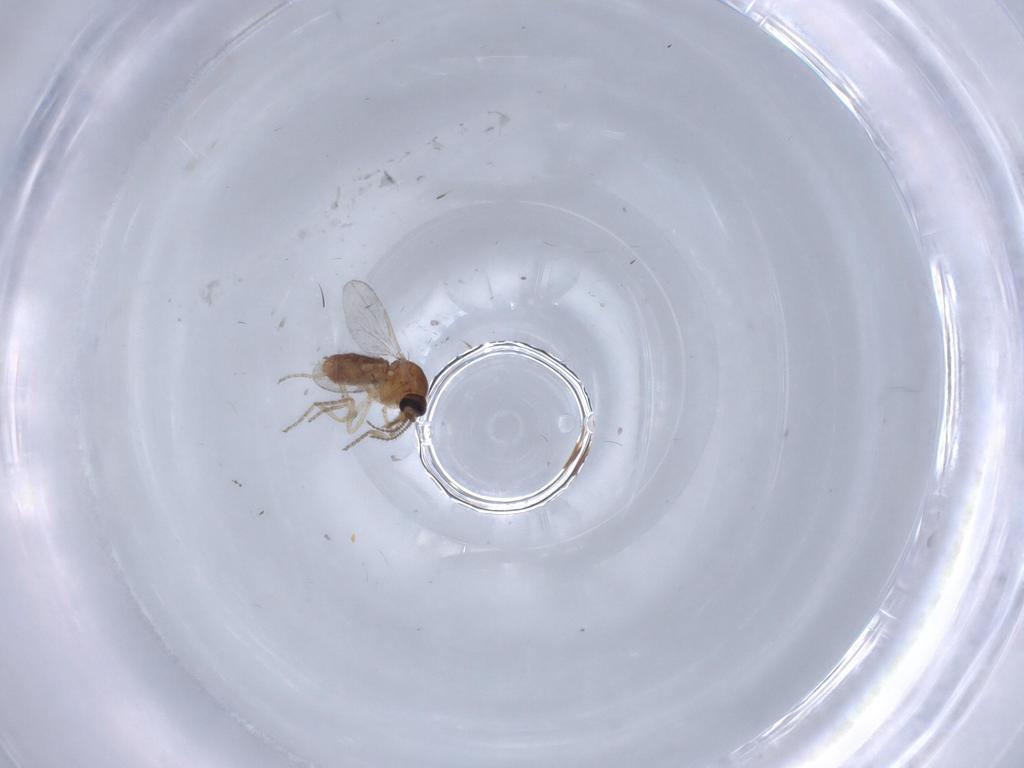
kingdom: Animalia
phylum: Arthropoda
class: Insecta
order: Diptera
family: Ceratopogonidae
